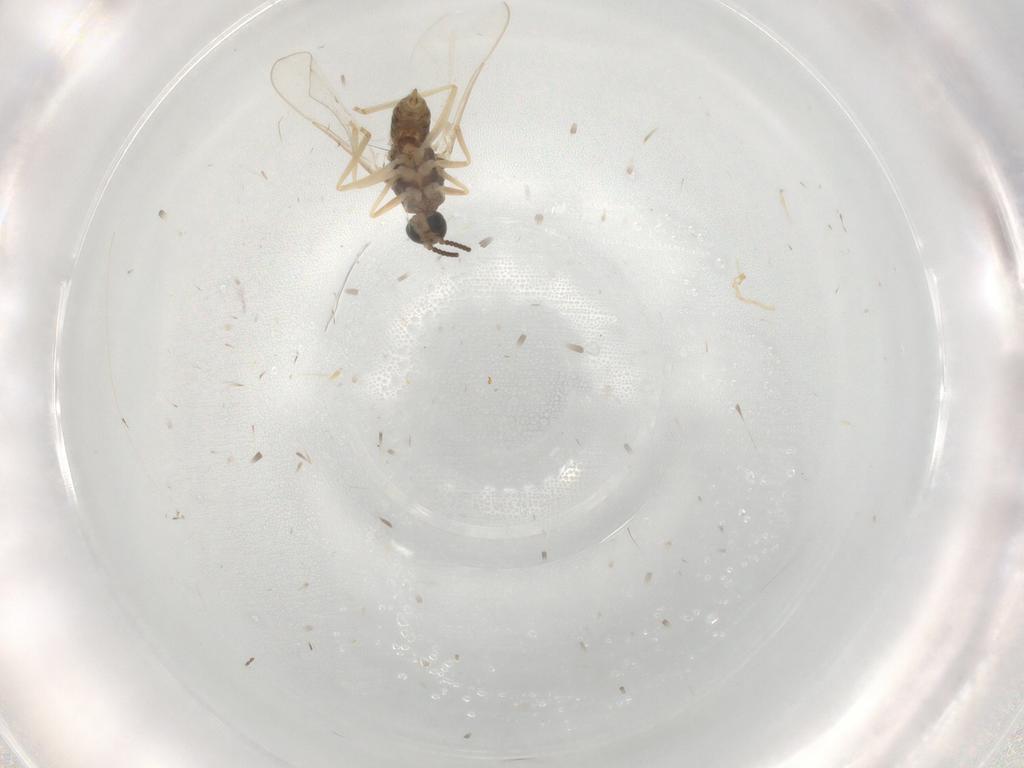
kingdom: Animalia
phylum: Arthropoda
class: Insecta
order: Diptera
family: Cecidomyiidae
